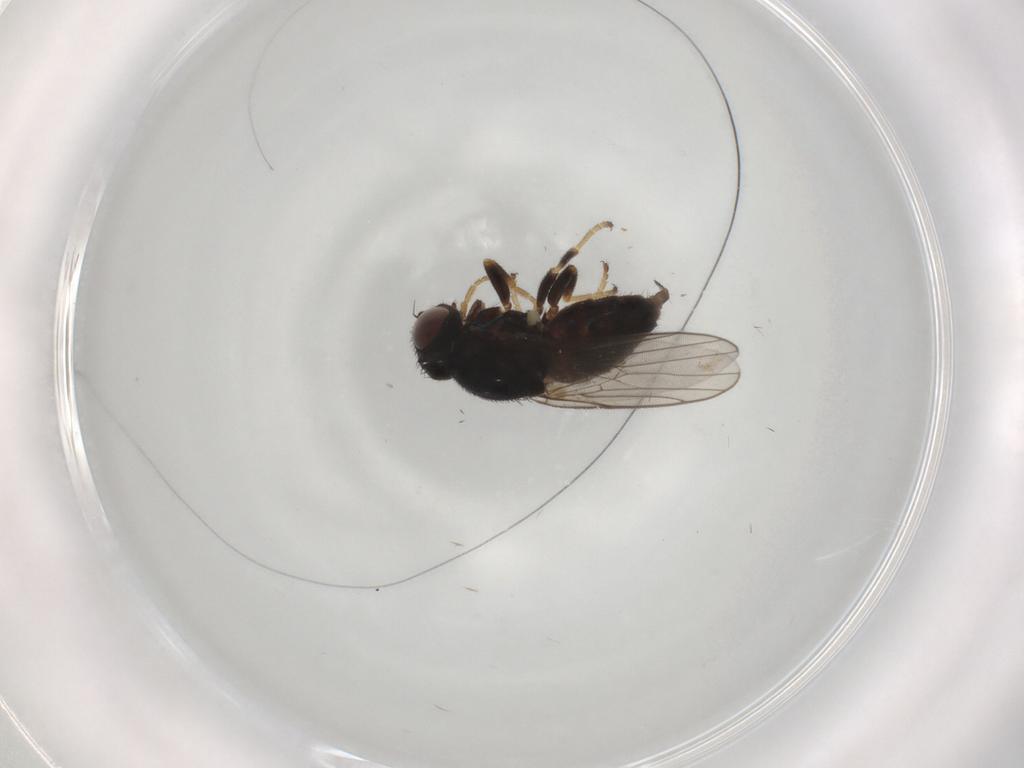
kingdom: Animalia
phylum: Arthropoda
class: Insecta
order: Diptera
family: Chloropidae
